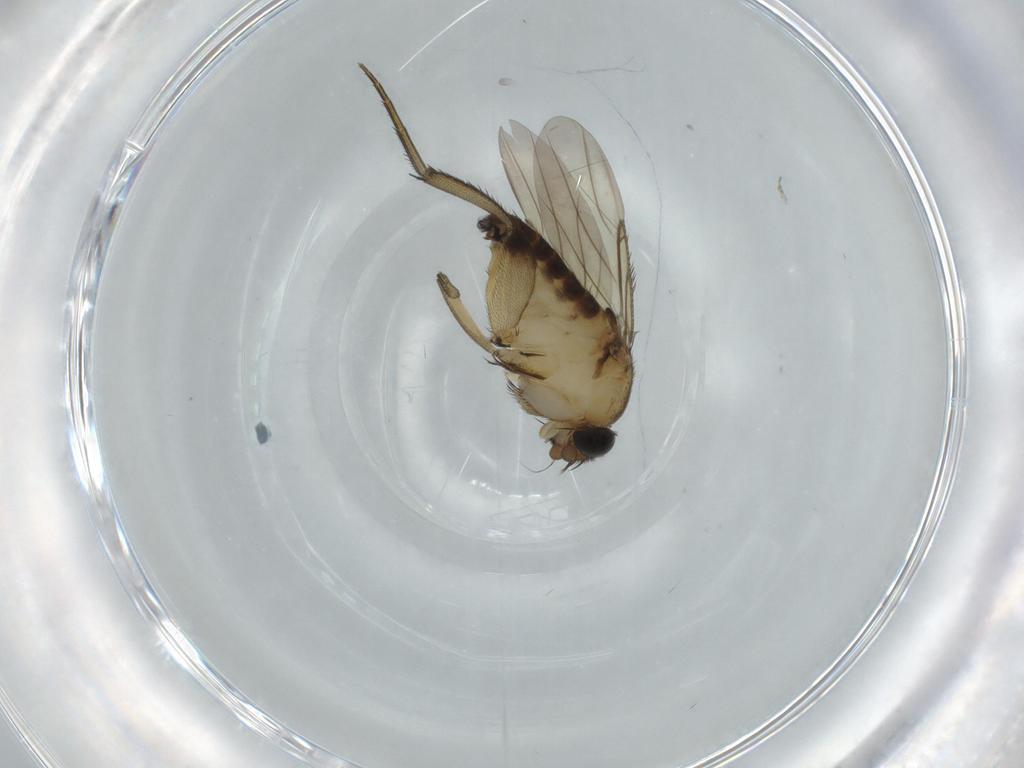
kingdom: Animalia
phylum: Arthropoda
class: Insecta
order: Diptera
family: Phoridae
